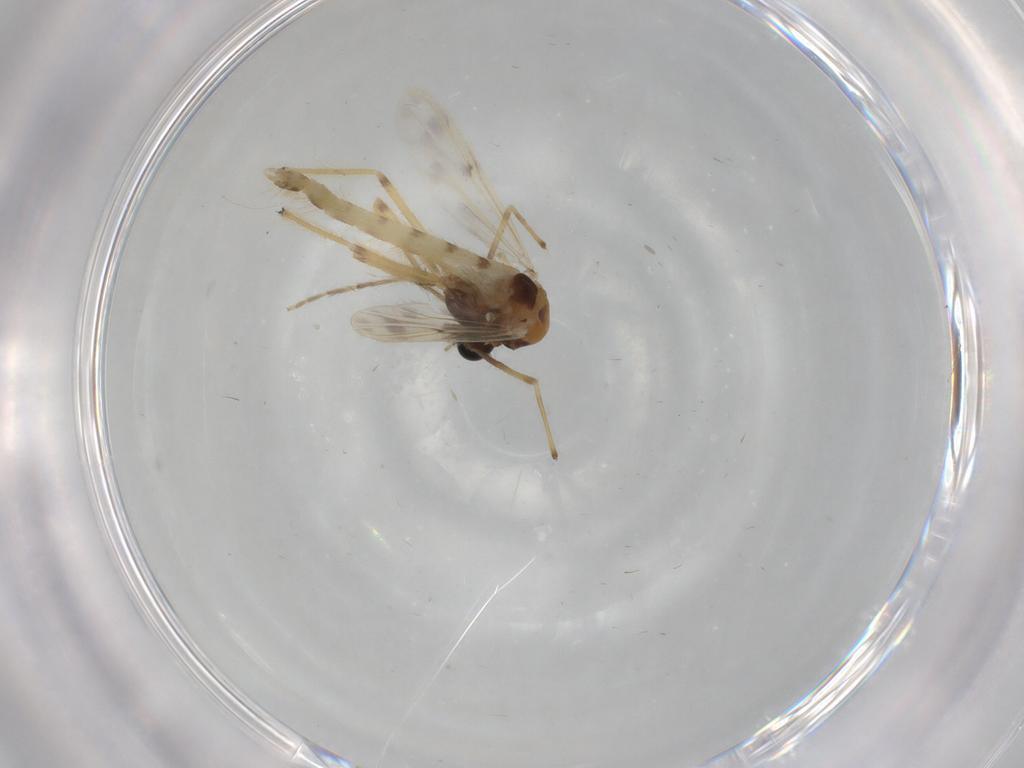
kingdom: Animalia
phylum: Arthropoda
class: Insecta
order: Diptera
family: Chironomidae
